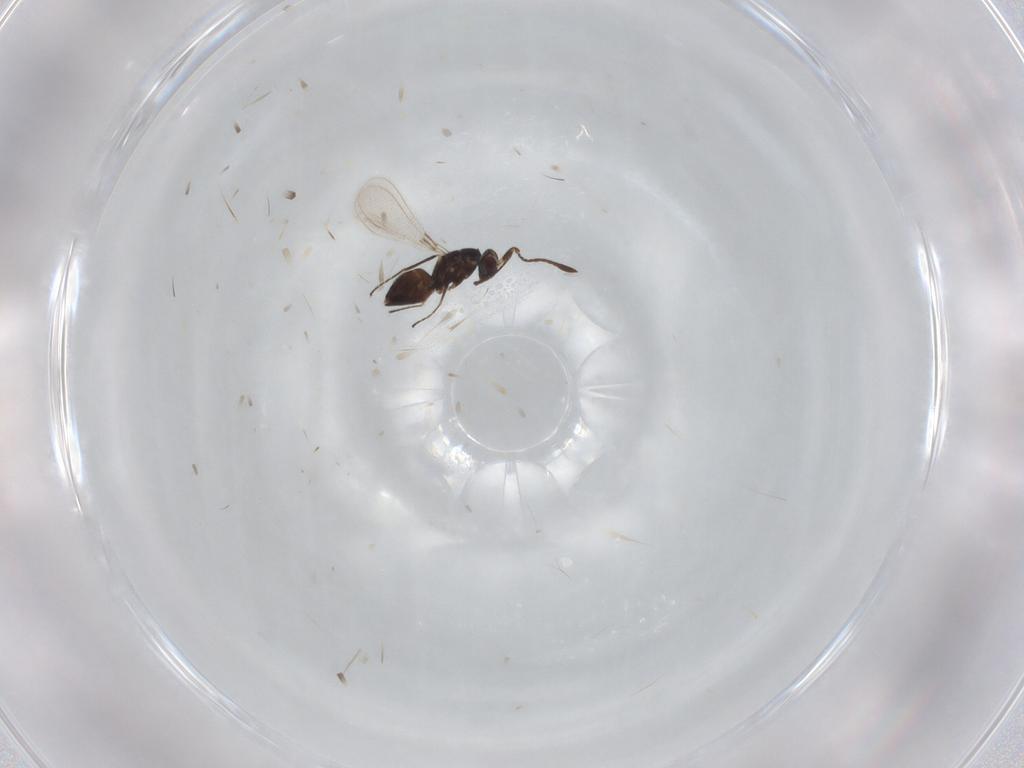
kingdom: Animalia
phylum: Arthropoda
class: Insecta
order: Hymenoptera
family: Mymaridae
